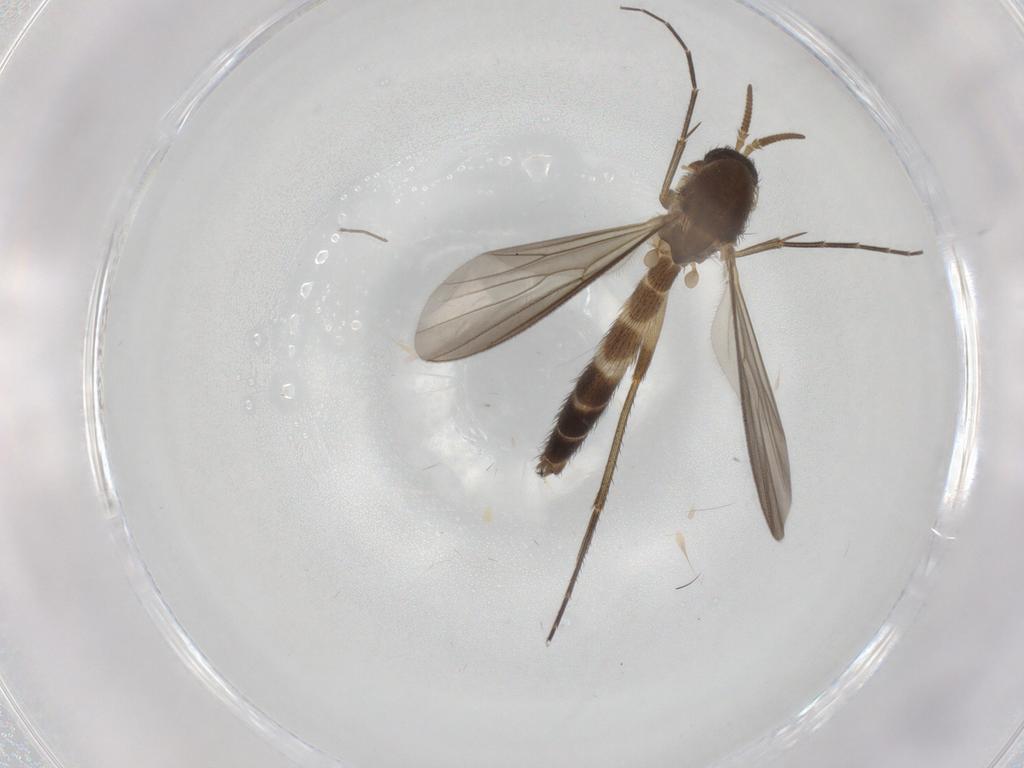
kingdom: Animalia
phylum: Arthropoda
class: Insecta
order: Diptera
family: Mycetophilidae
